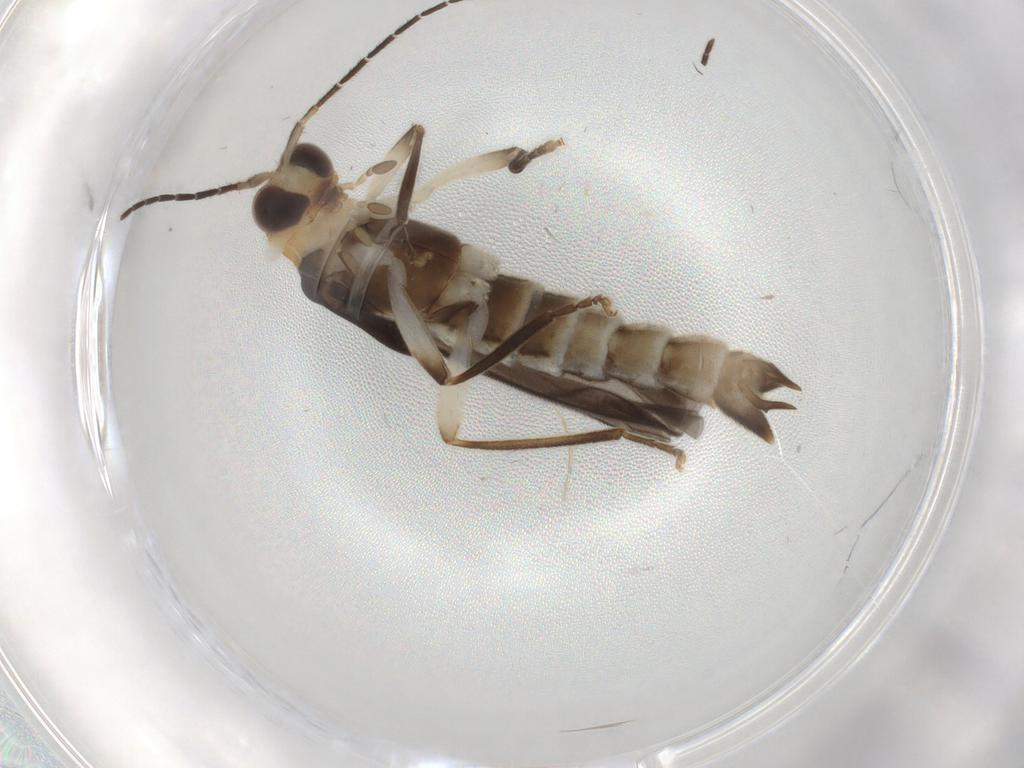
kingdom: Animalia
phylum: Arthropoda
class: Insecta
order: Coleoptera
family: Cantharidae
